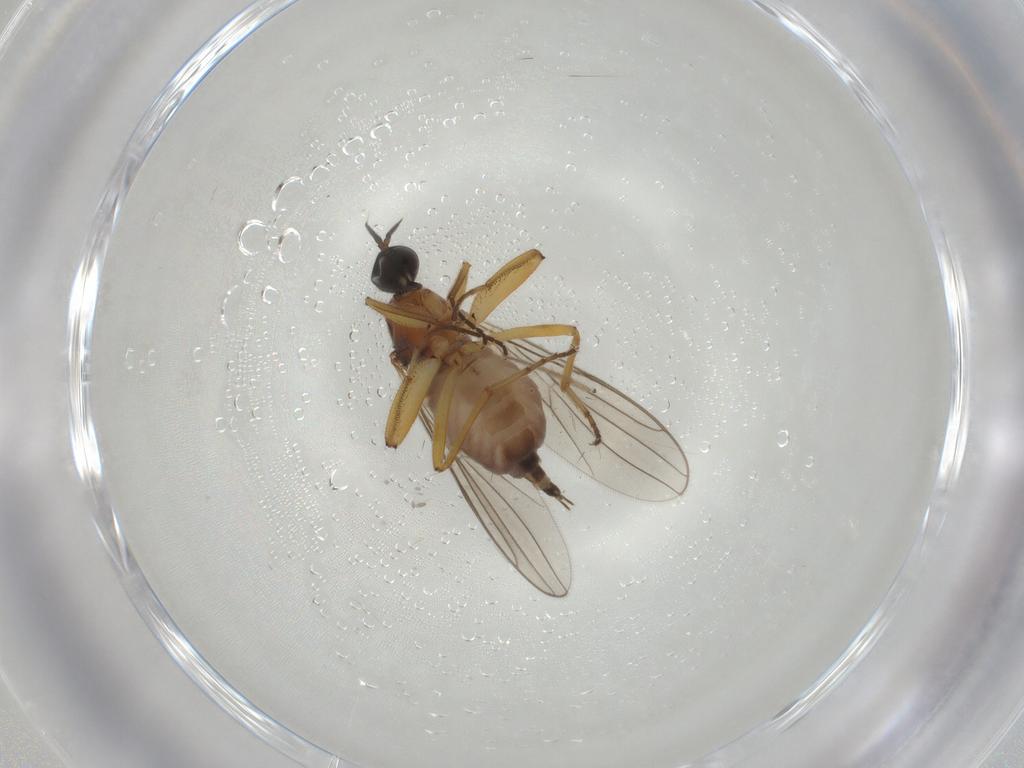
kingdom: Animalia
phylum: Arthropoda
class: Insecta
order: Diptera
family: Hybotidae
